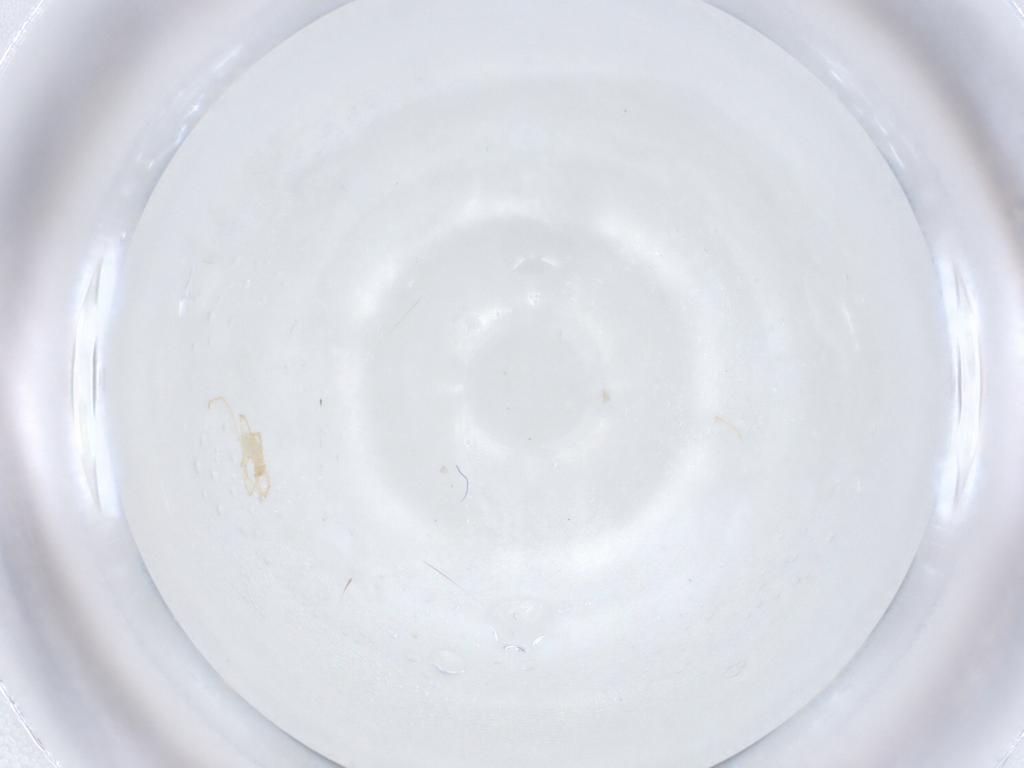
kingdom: Animalia
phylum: Arthropoda
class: Arachnida
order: Trombidiformes
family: Erythraeidae
